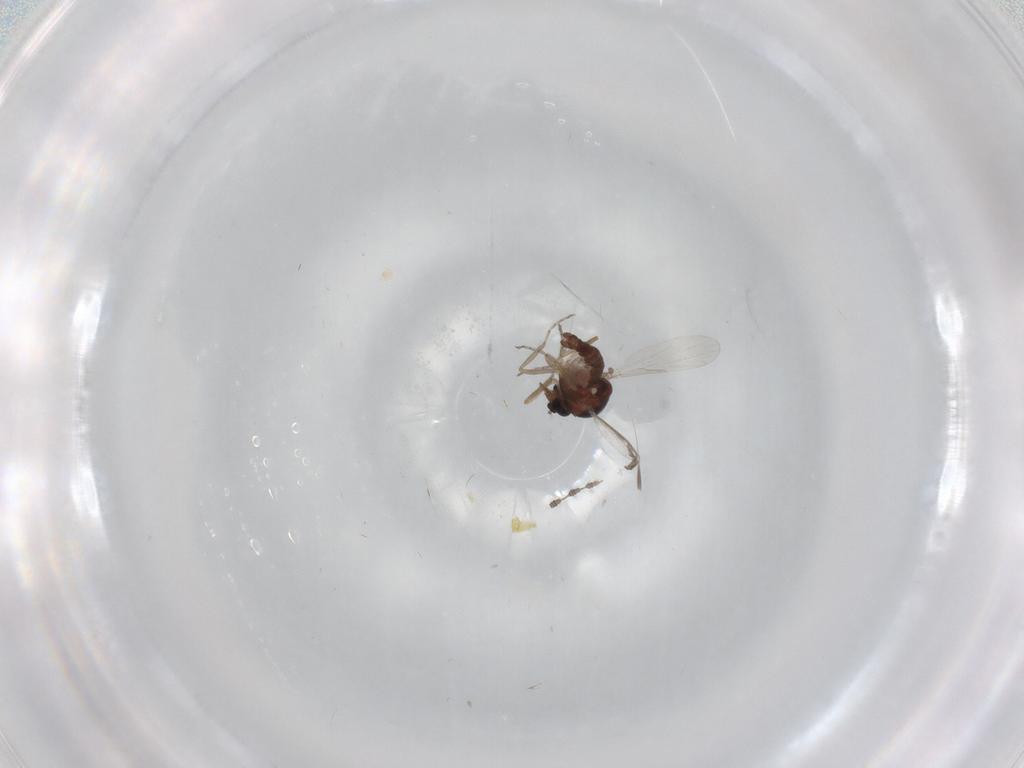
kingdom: Animalia
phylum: Arthropoda
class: Insecta
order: Diptera
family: Ceratopogonidae
